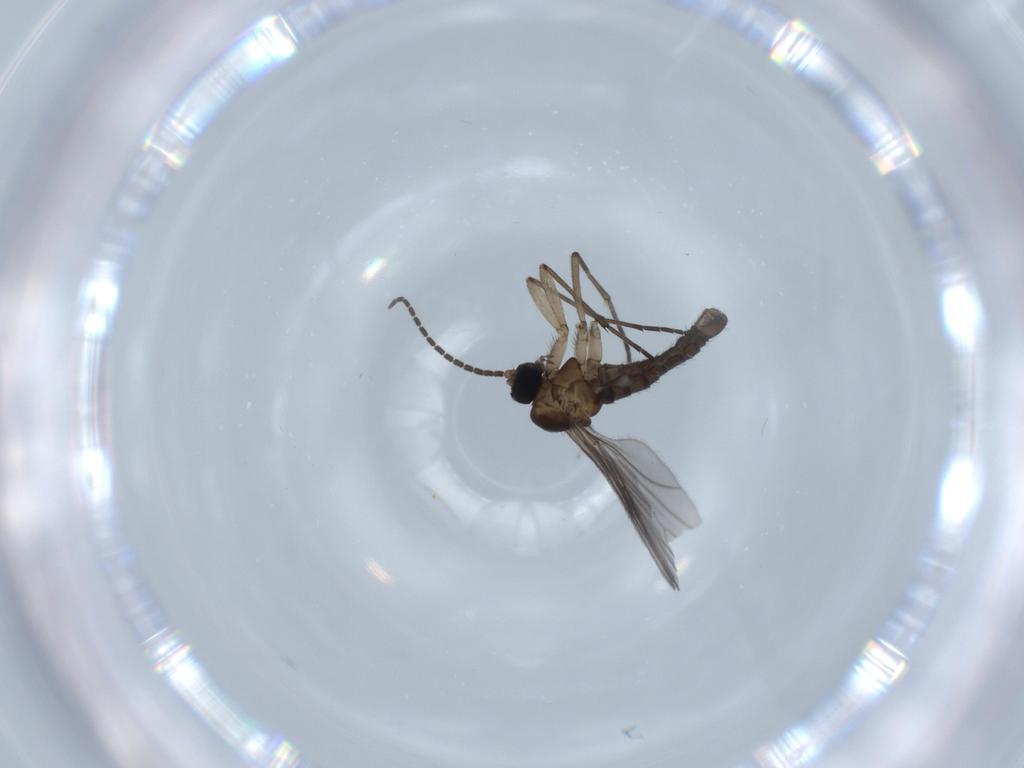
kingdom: Animalia
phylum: Arthropoda
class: Insecta
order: Diptera
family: Sciaridae
